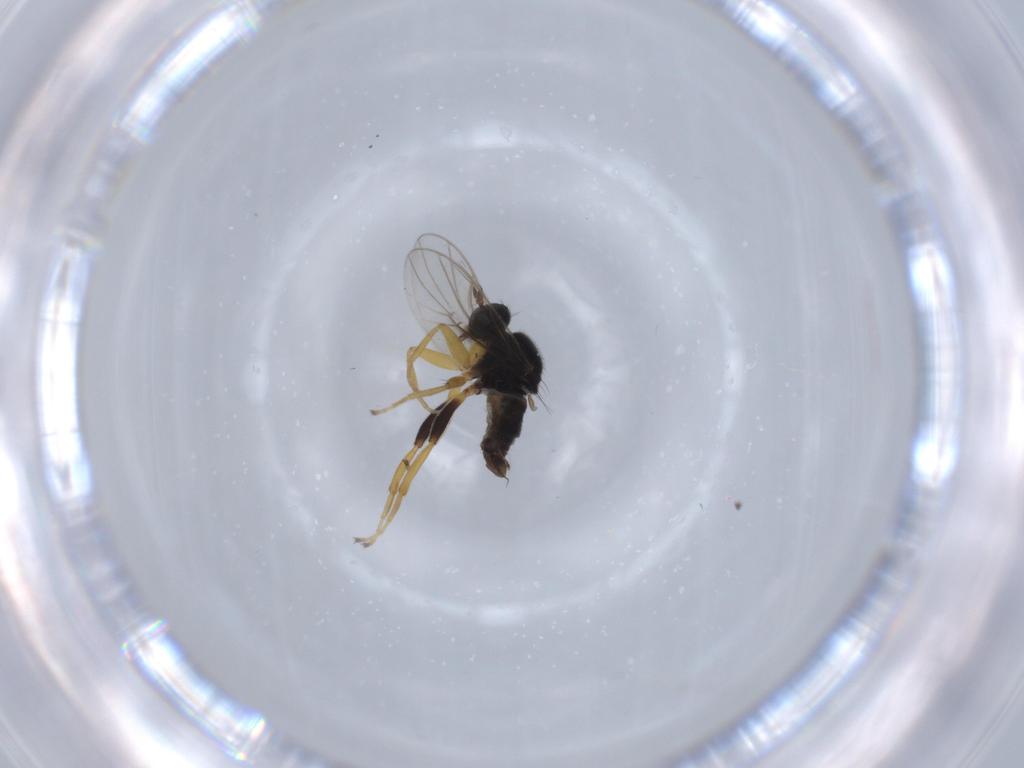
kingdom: Animalia
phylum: Arthropoda
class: Insecta
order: Diptera
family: Hybotidae
